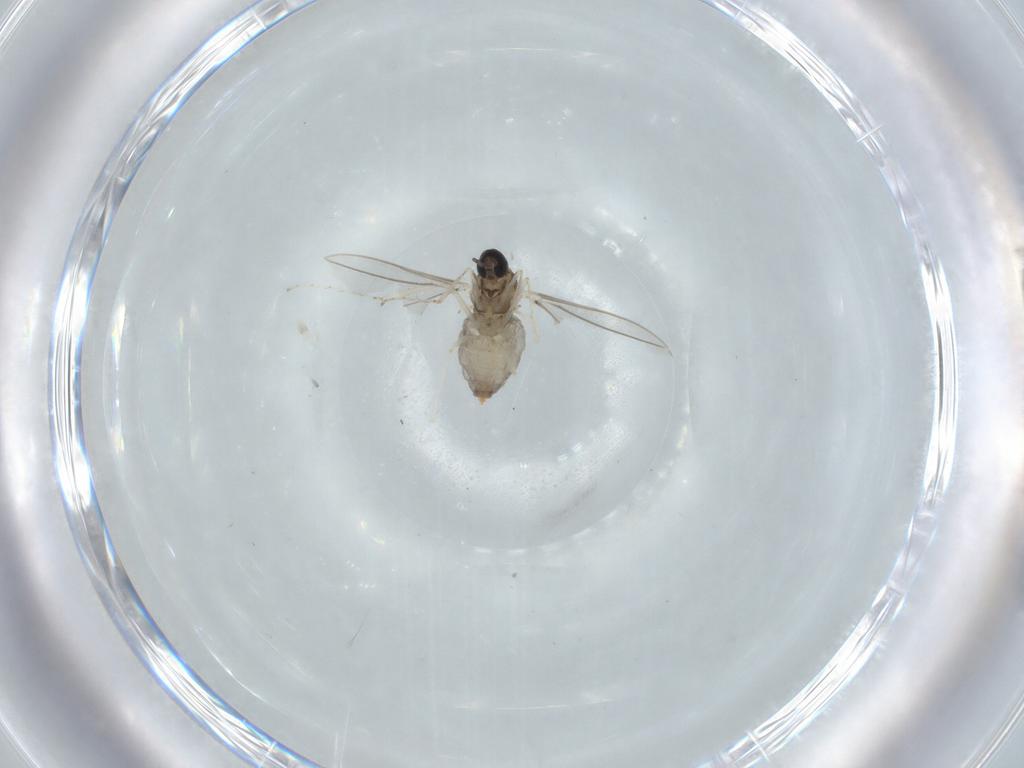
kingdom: Animalia
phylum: Arthropoda
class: Insecta
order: Diptera
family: Cecidomyiidae
